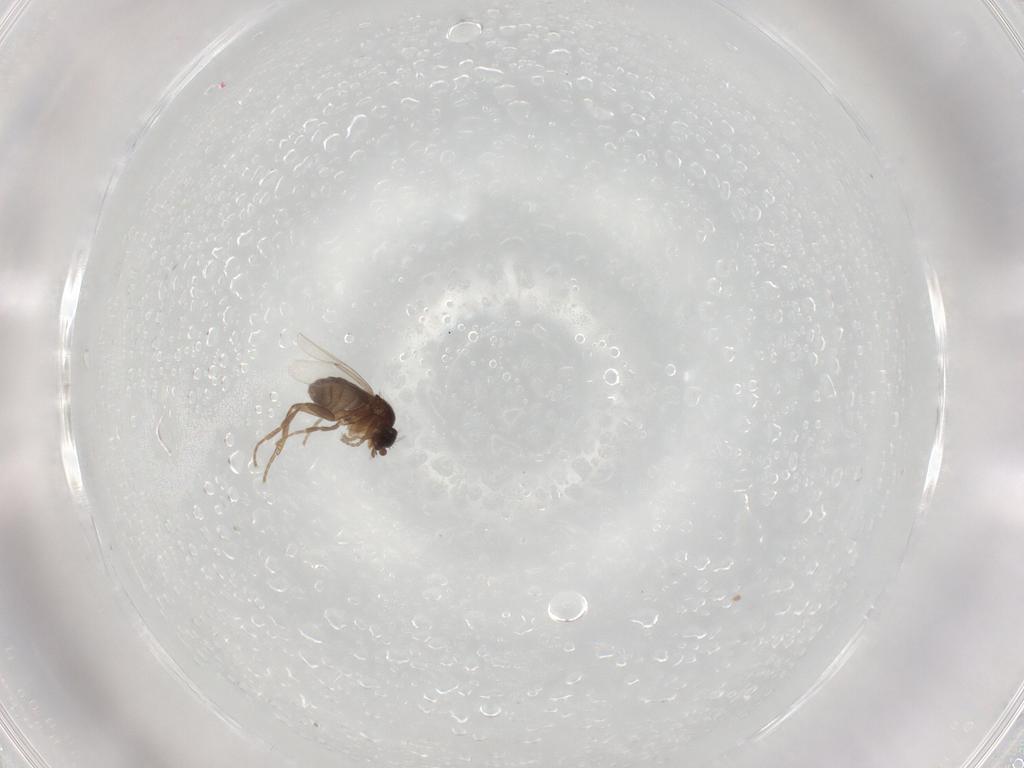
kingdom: Animalia
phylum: Arthropoda
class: Insecta
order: Diptera
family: Phoridae
